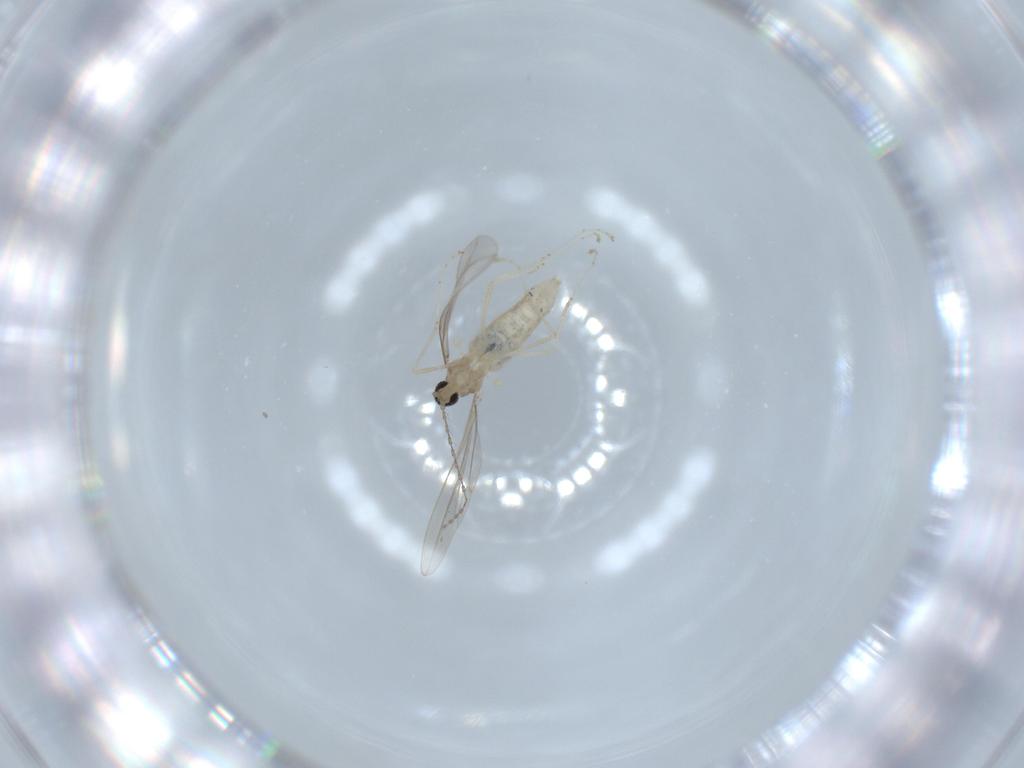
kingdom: Animalia
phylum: Arthropoda
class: Insecta
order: Diptera
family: Cecidomyiidae
